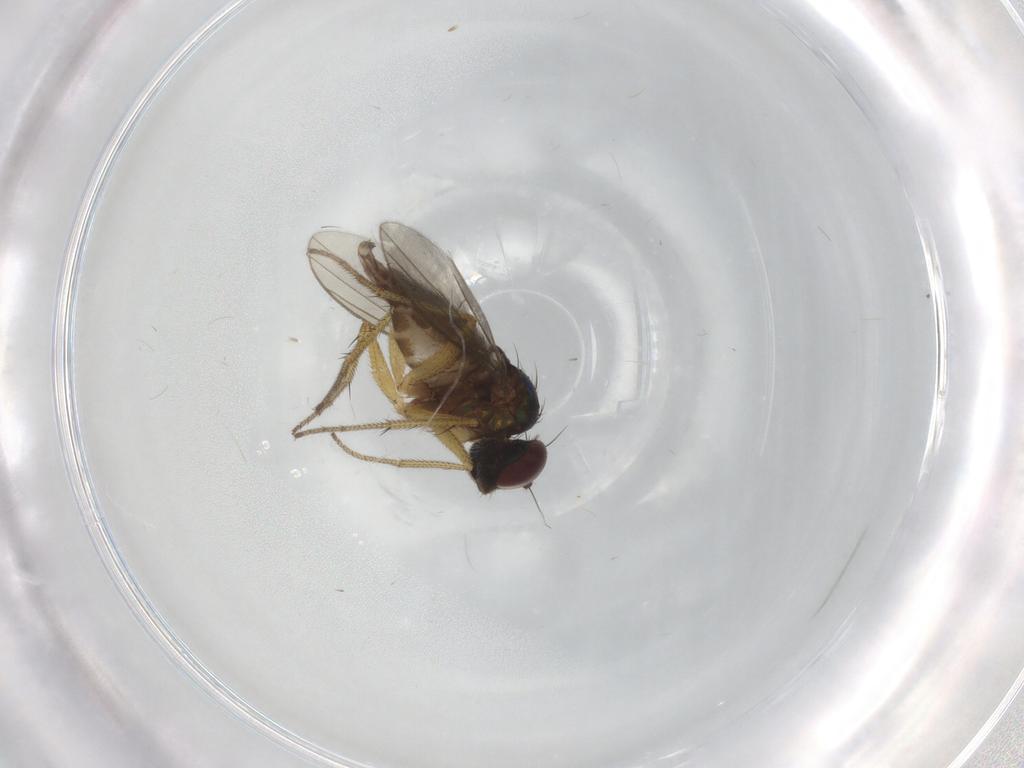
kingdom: Animalia
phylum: Arthropoda
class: Insecta
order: Diptera
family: Dolichopodidae
